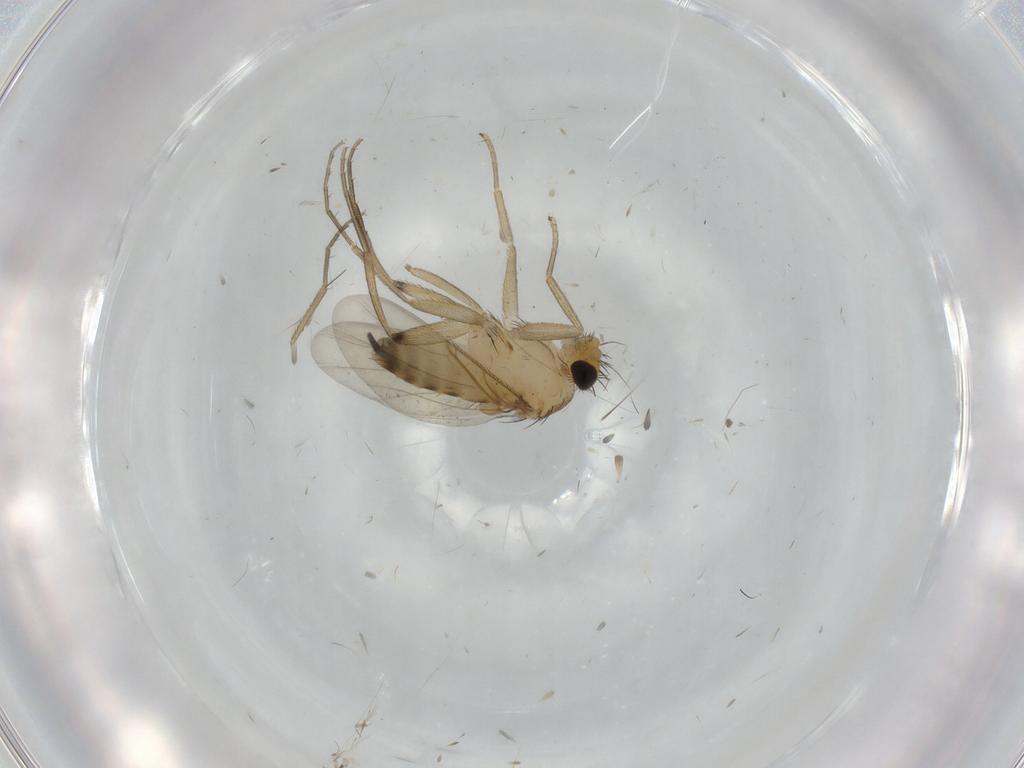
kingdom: Animalia
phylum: Arthropoda
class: Insecta
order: Diptera
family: Phoridae
